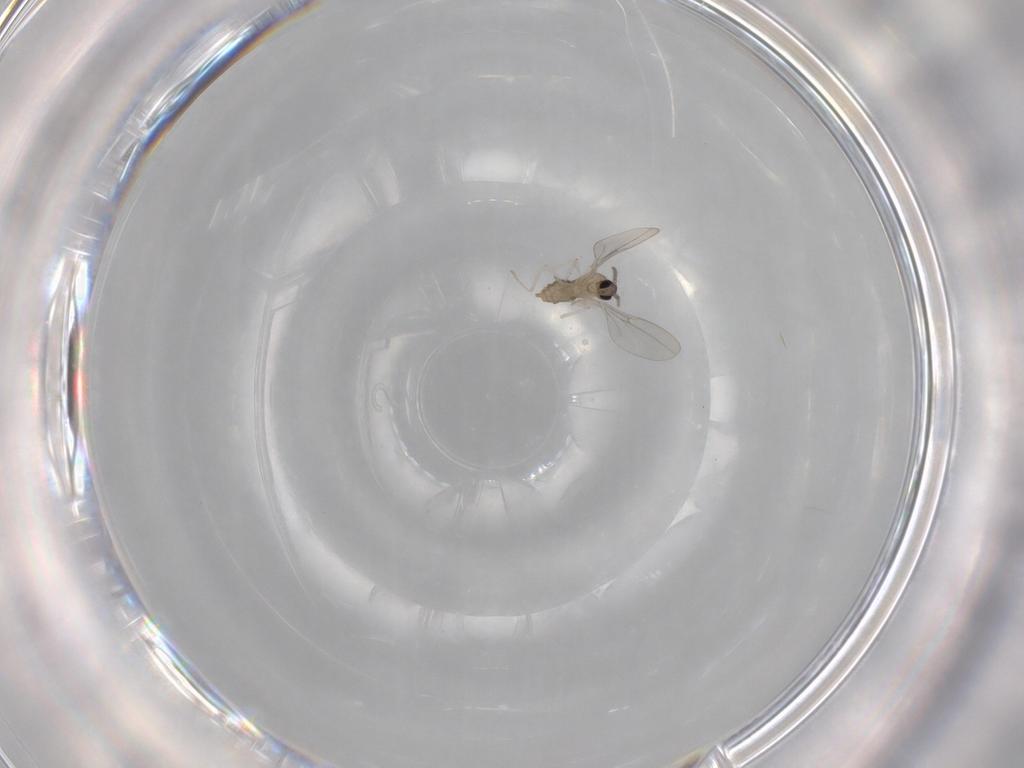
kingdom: Animalia
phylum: Arthropoda
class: Insecta
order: Diptera
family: Cecidomyiidae
